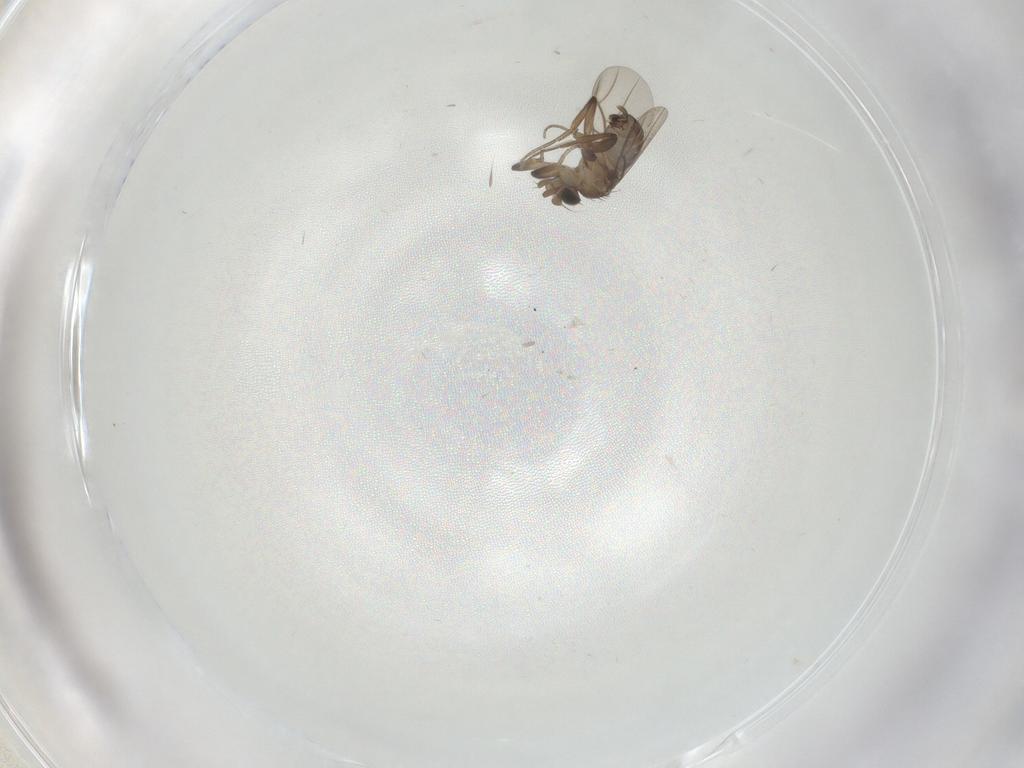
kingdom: Animalia
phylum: Arthropoda
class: Insecta
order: Diptera
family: Phoridae
